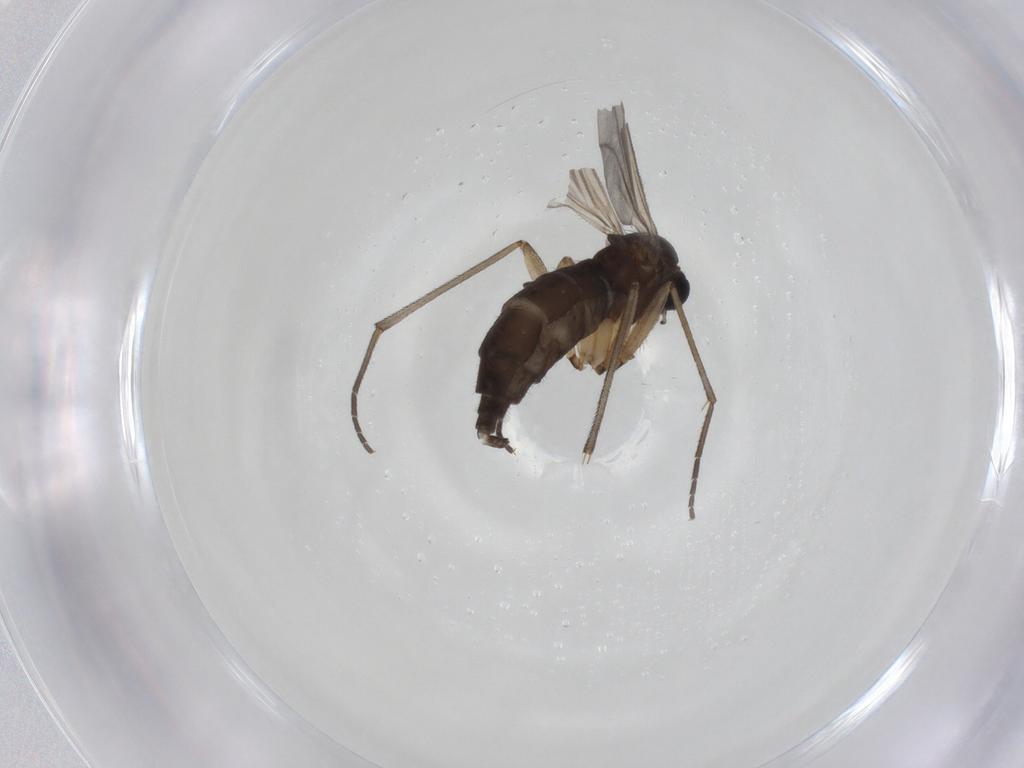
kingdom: Animalia
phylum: Arthropoda
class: Insecta
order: Diptera
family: Sciaridae
